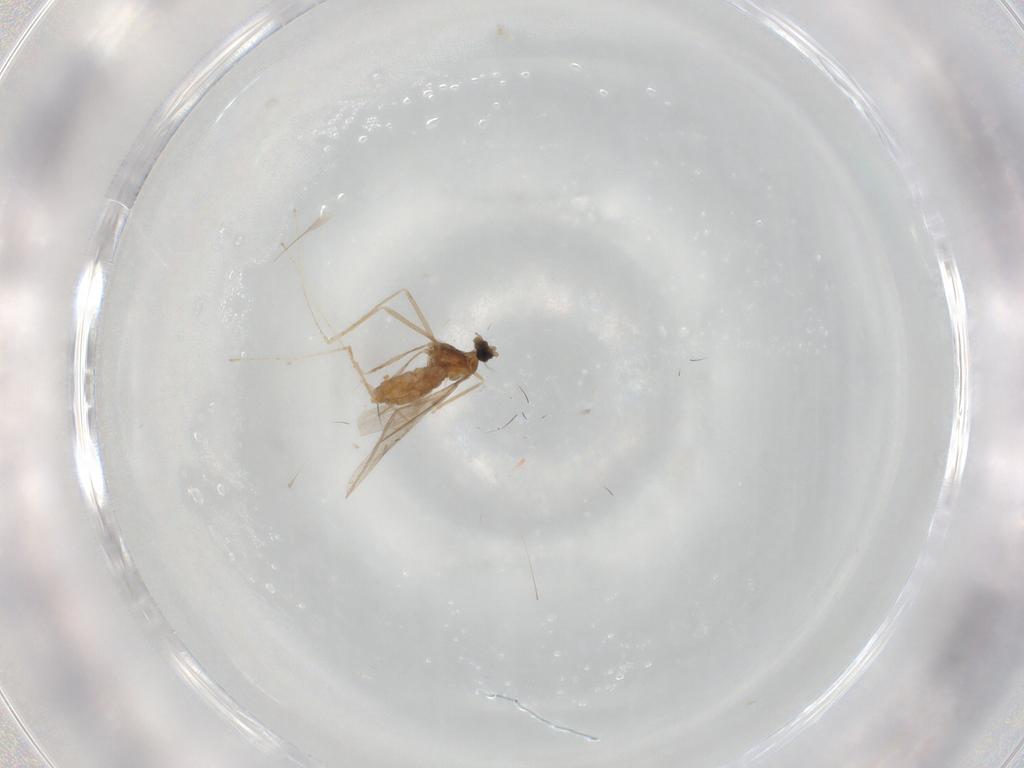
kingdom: Animalia
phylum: Arthropoda
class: Insecta
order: Diptera
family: Cecidomyiidae
